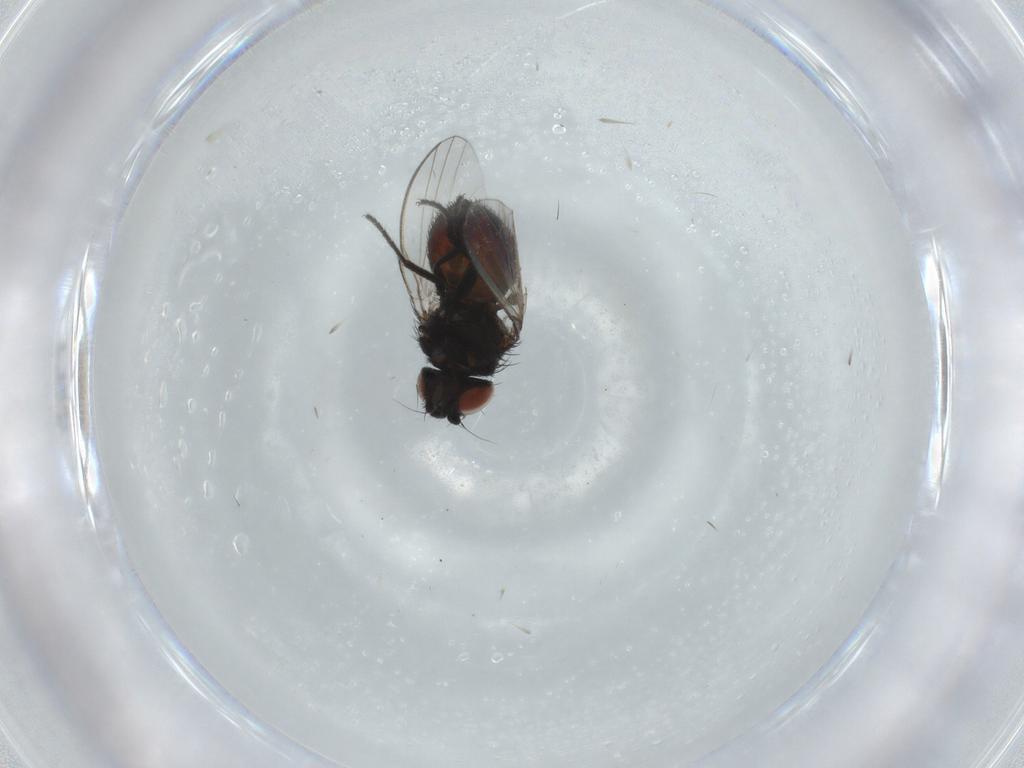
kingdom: Animalia
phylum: Arthropoda
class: Insecta
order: Diptera
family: Milichiidae
